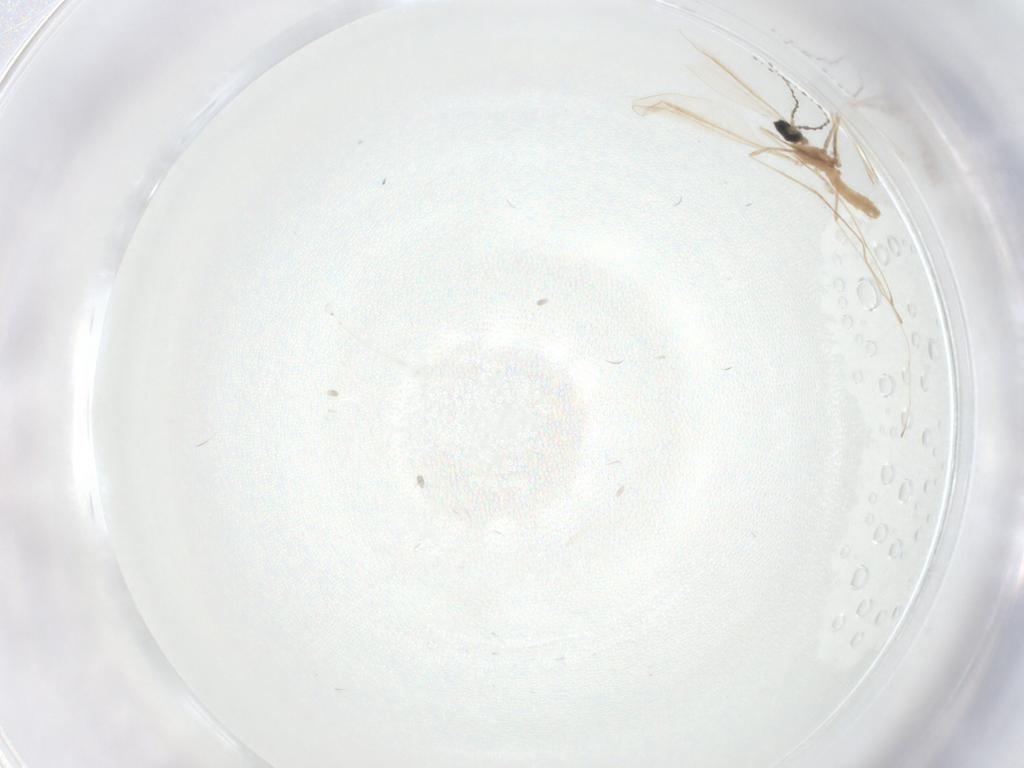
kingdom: Animalia
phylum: Arthropoda
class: Insecta
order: Diptera
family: Cecidomyiidae
